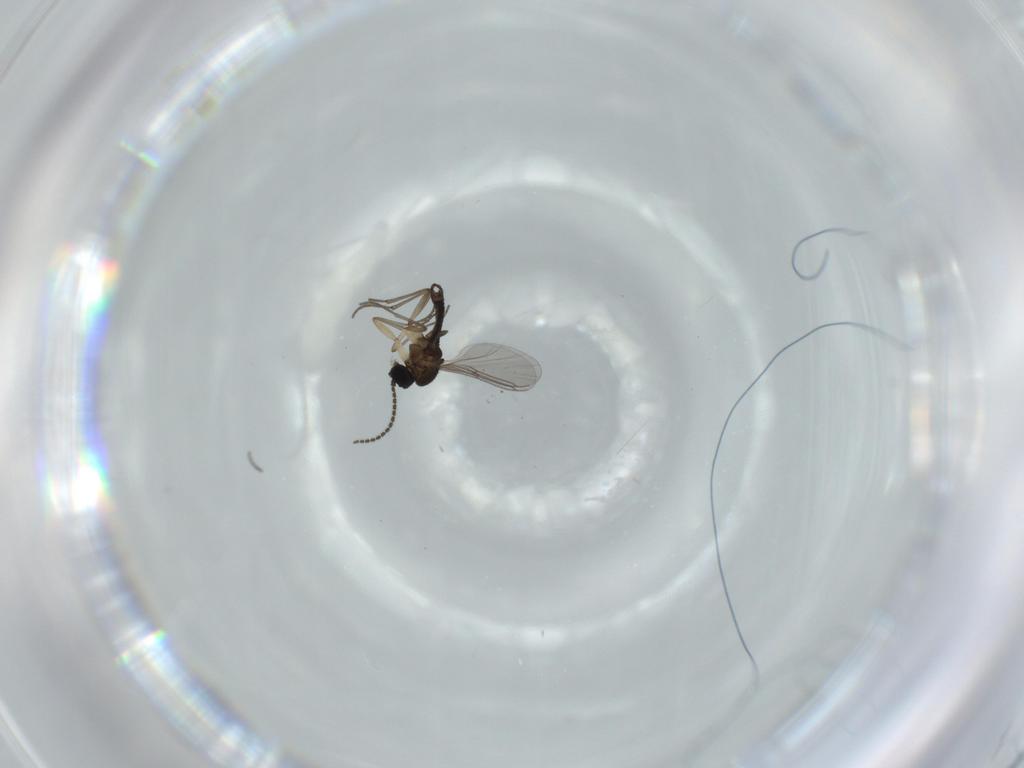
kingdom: Animalia
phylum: Arthropoda
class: Insecta
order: Diptera
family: Sciaridae
